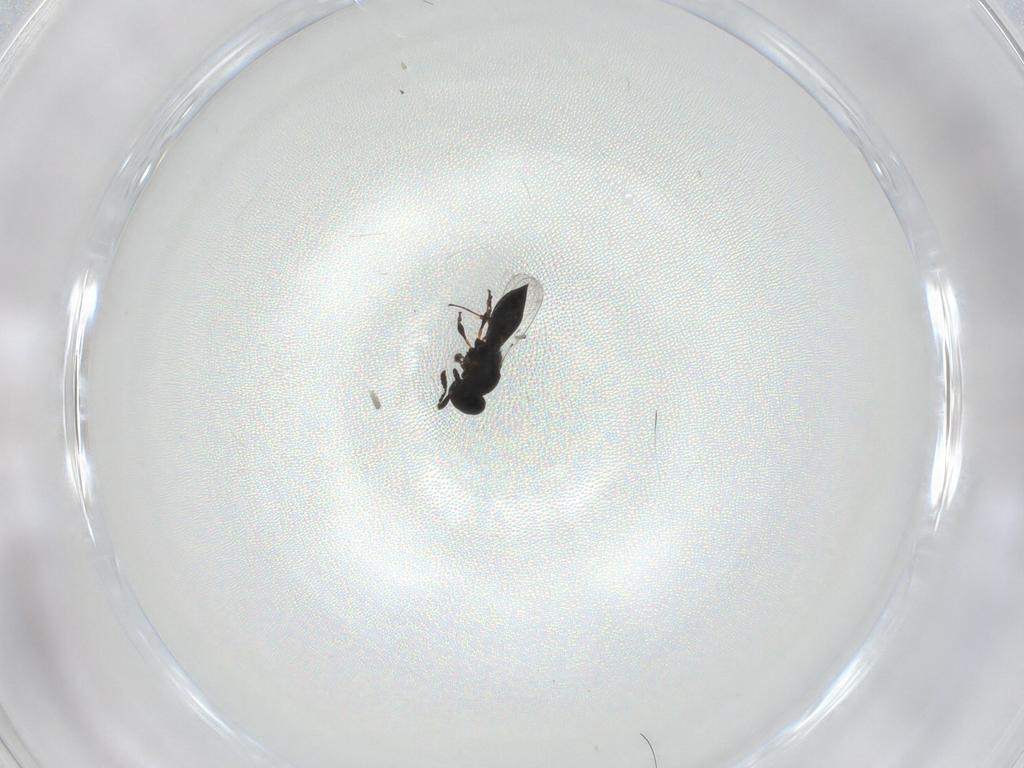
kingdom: Animalia
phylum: Arthropoda
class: Insecta
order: Hymenoptera
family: Platygastridae
